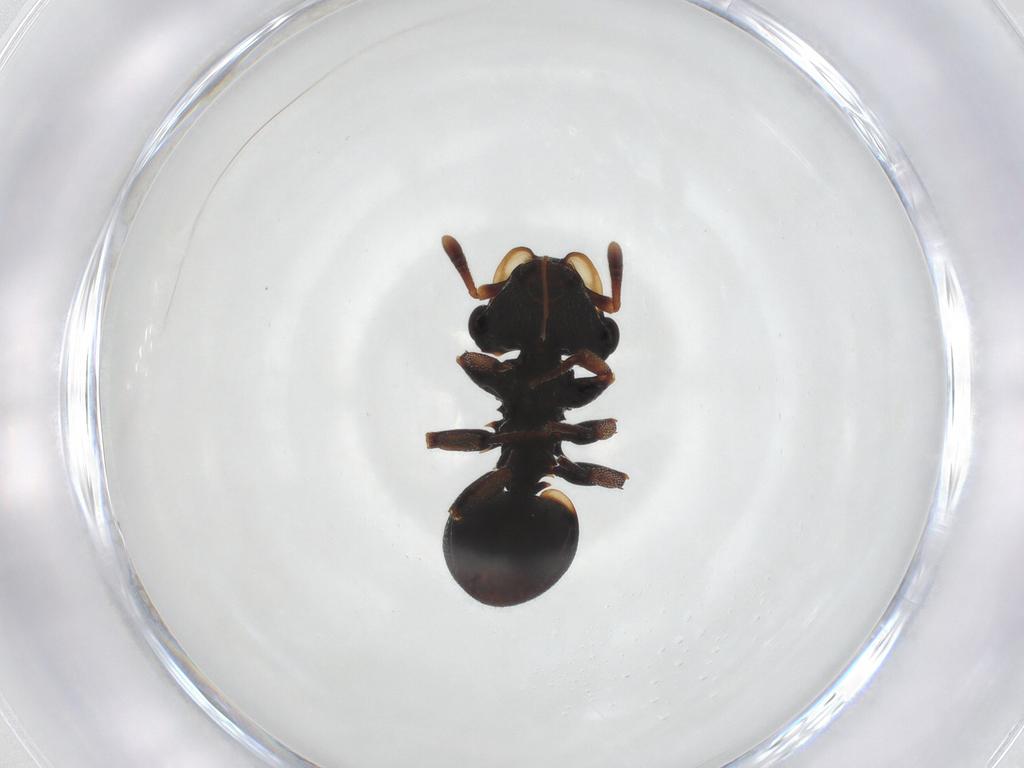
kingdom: Animalia
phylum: Arthropoda
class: Insecta
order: Hymenoptera
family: Formicidae
